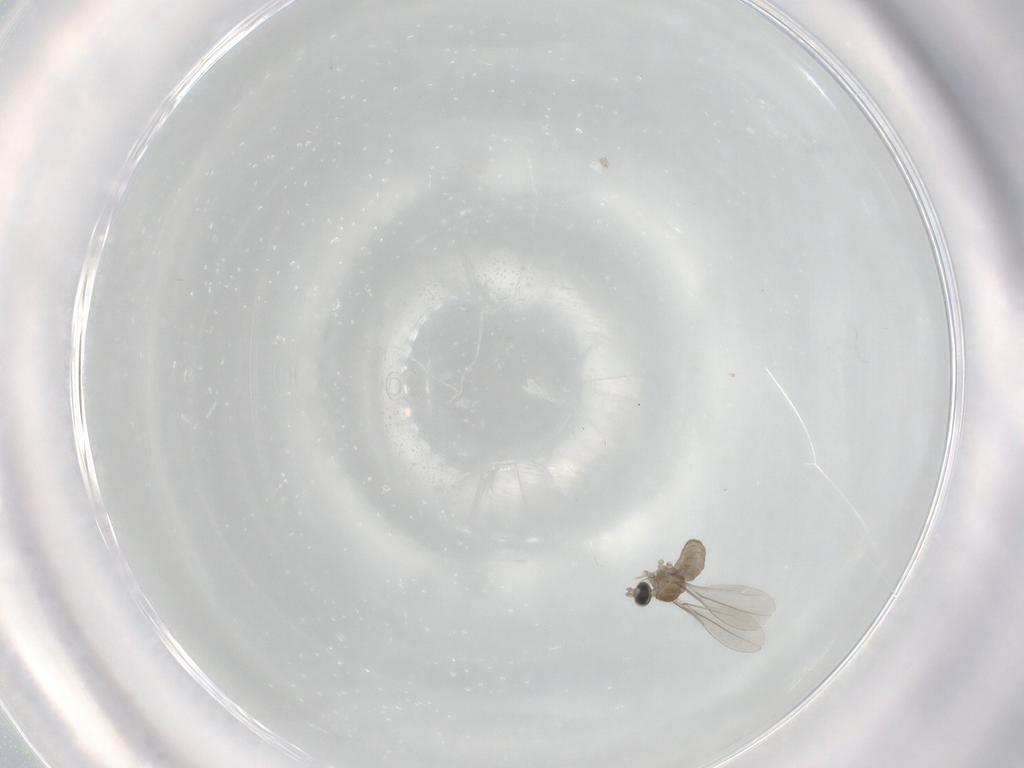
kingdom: Animalia
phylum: Arthropoda
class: Insecta
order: Diptera
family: Cecidomyiidae
